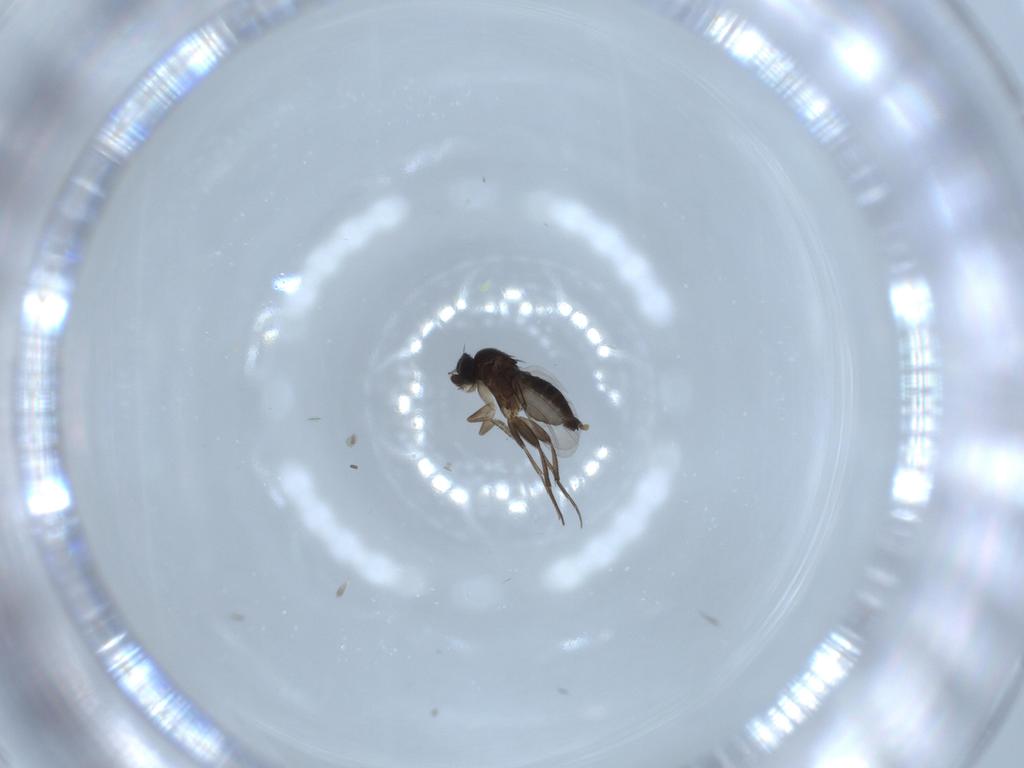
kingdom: Animalia
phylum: Arthropoda
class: Insecta
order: Diptera
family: Phoridae
